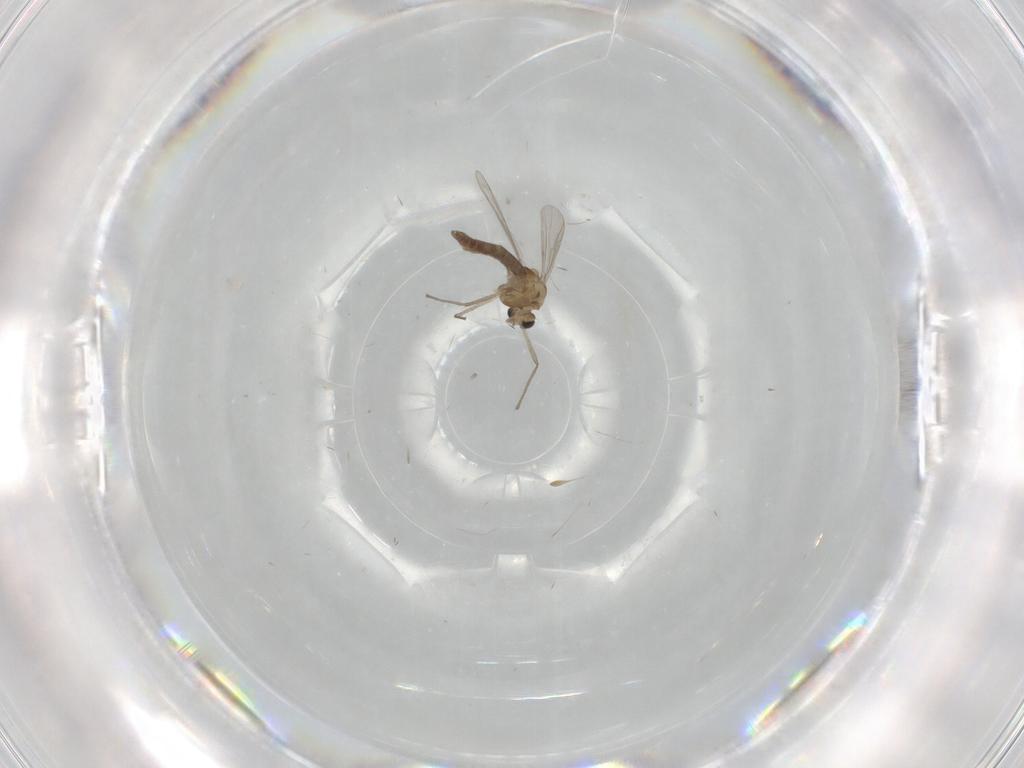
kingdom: Animalia
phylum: Arthropoda
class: Insecta
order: Diptera
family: Chironomidae
